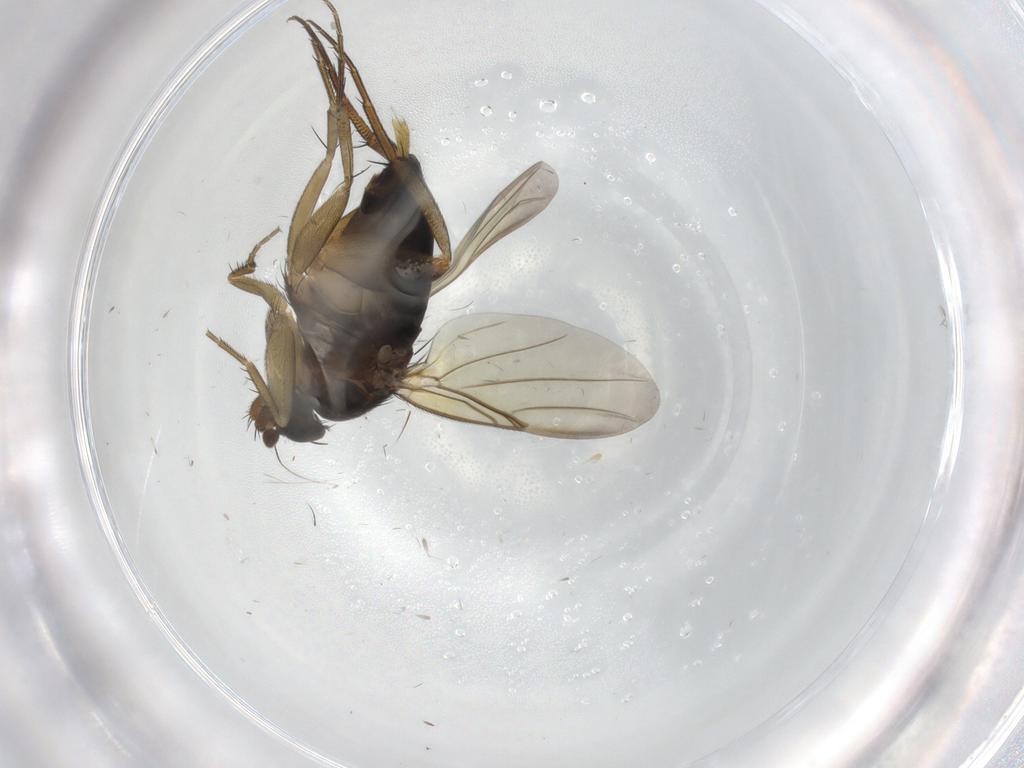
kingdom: Animalia
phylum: Arthropoda
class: Insecta
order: Diptera
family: Phoridae
